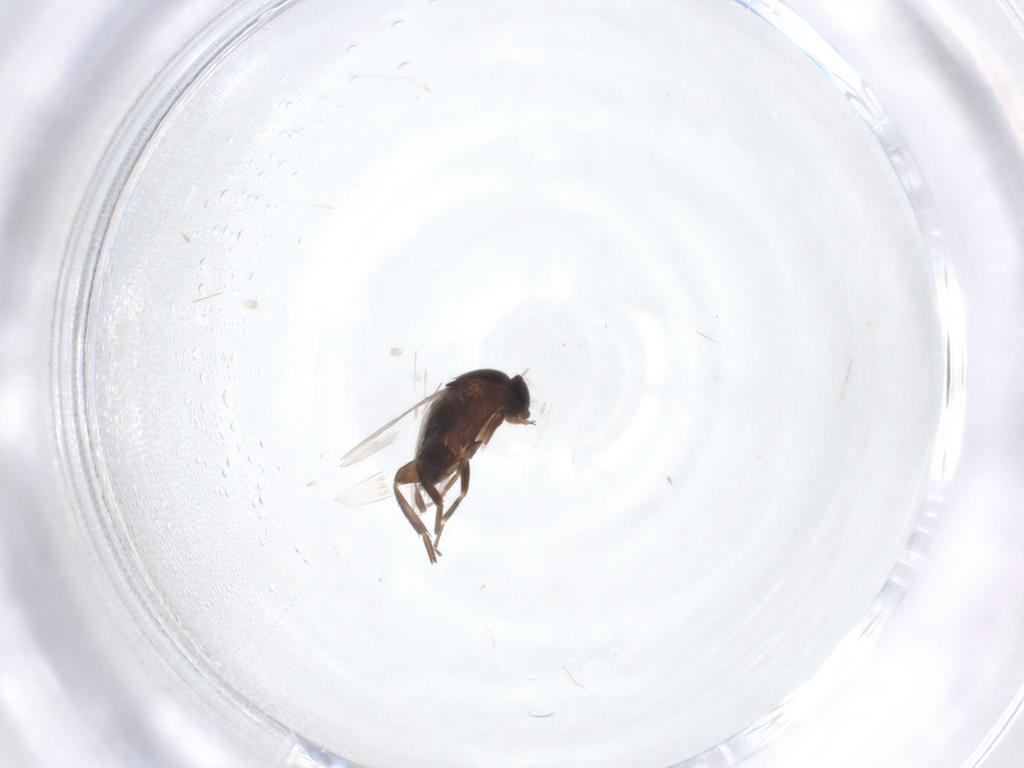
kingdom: Animalia
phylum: Arthropoda
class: Insecta
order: Diptera
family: Phoridae
